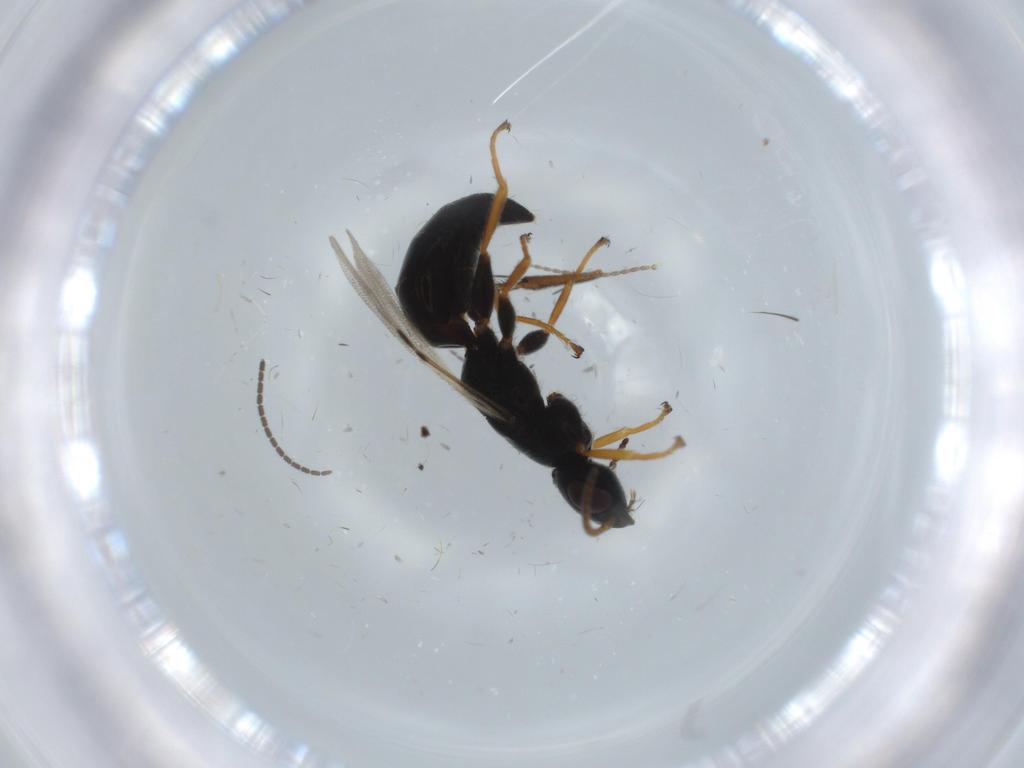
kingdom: Animalia
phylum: Arthropoda
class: Insecta
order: Hymenoptera
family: Bethylidae
